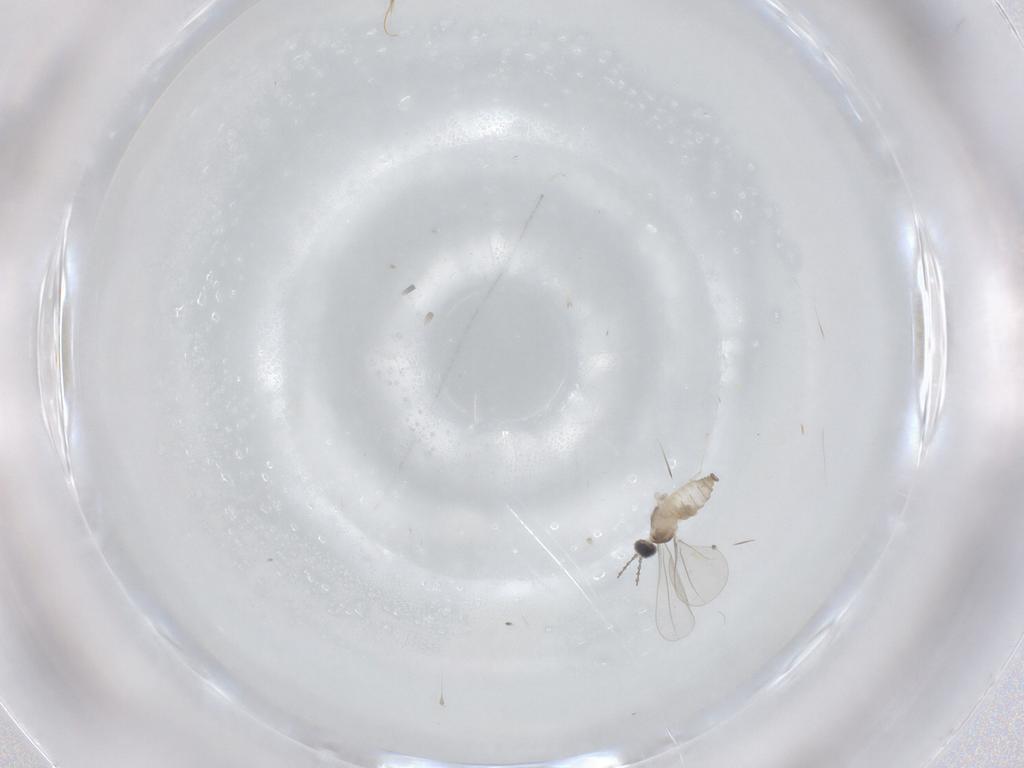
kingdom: Animalia
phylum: Arthropoda
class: Insecta
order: Diptera
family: Cecidomyiidae
